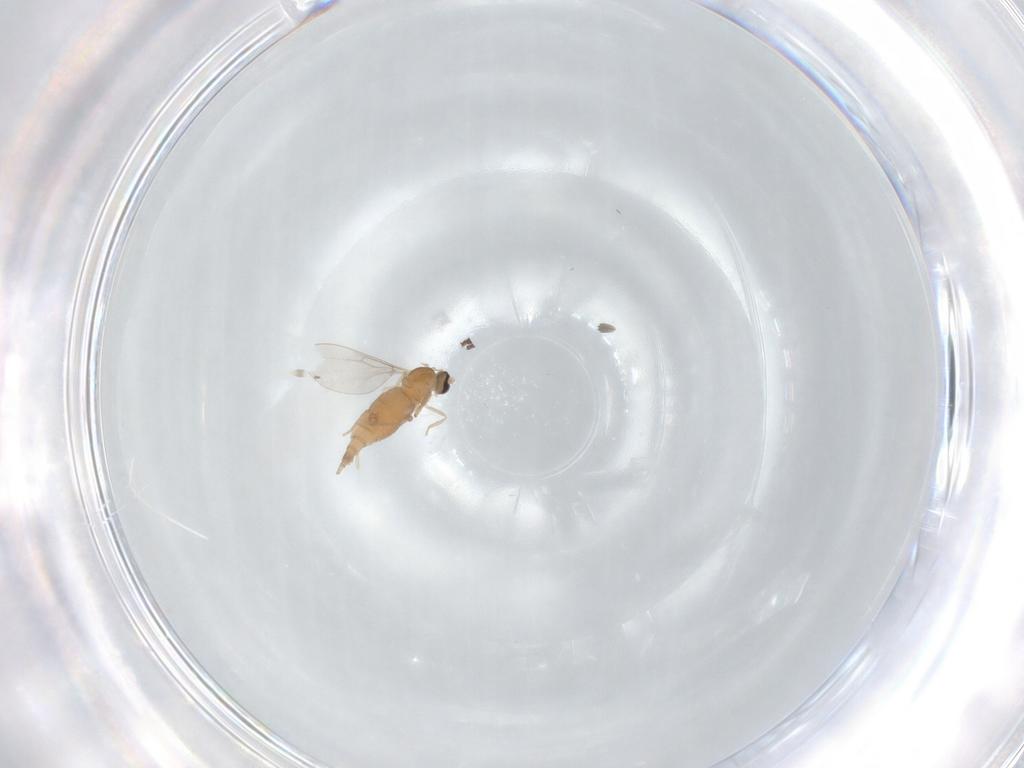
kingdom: Animalia
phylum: Arthropoda
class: Insecta
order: Diptera
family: Cecidomyiidae
